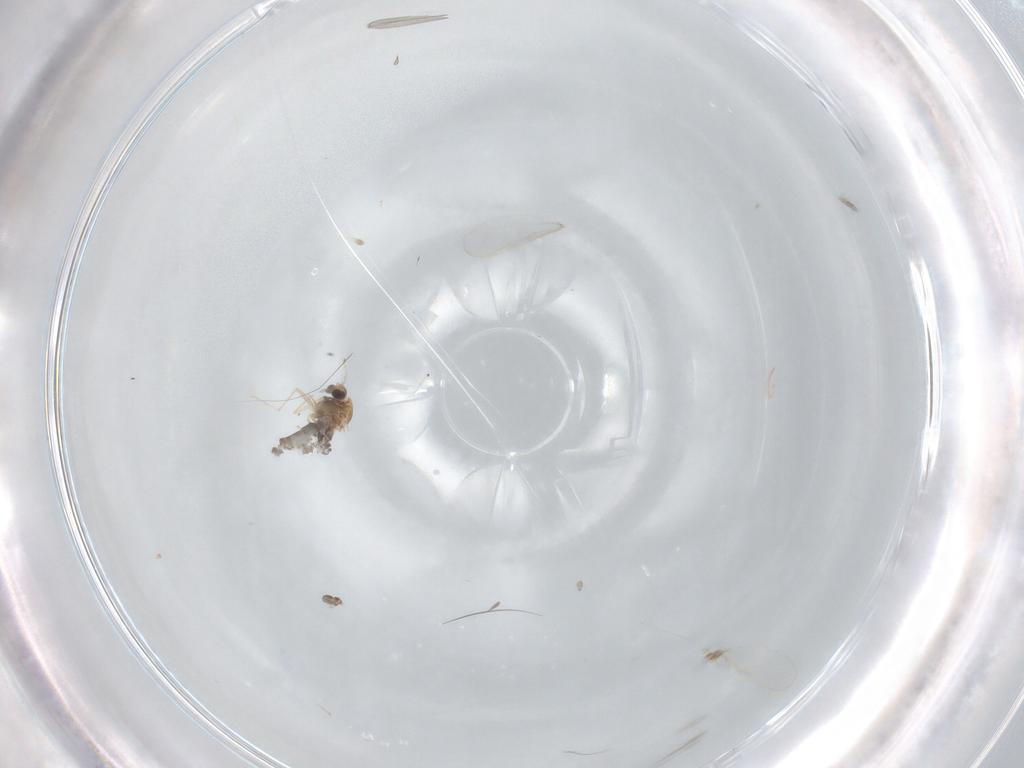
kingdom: Animalia
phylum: Arthropoda
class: Insecta
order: Diptera
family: Chironomidae
